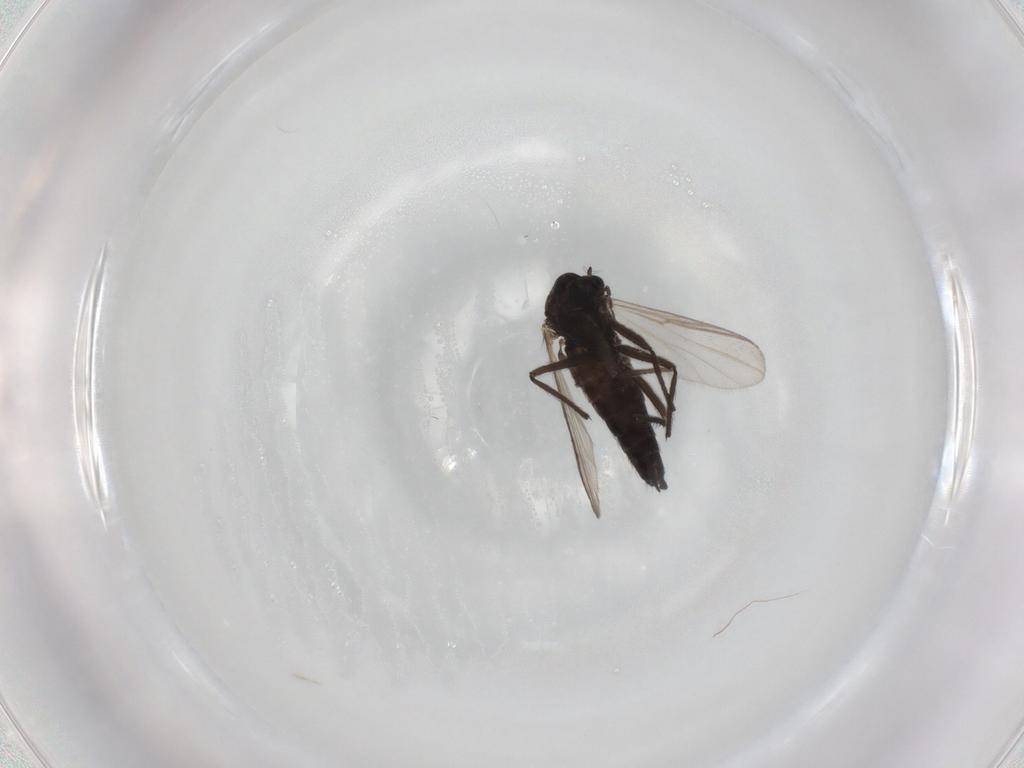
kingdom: Animalia
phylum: Arthropoda
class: Insecta
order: Diptera
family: Chironomidae
